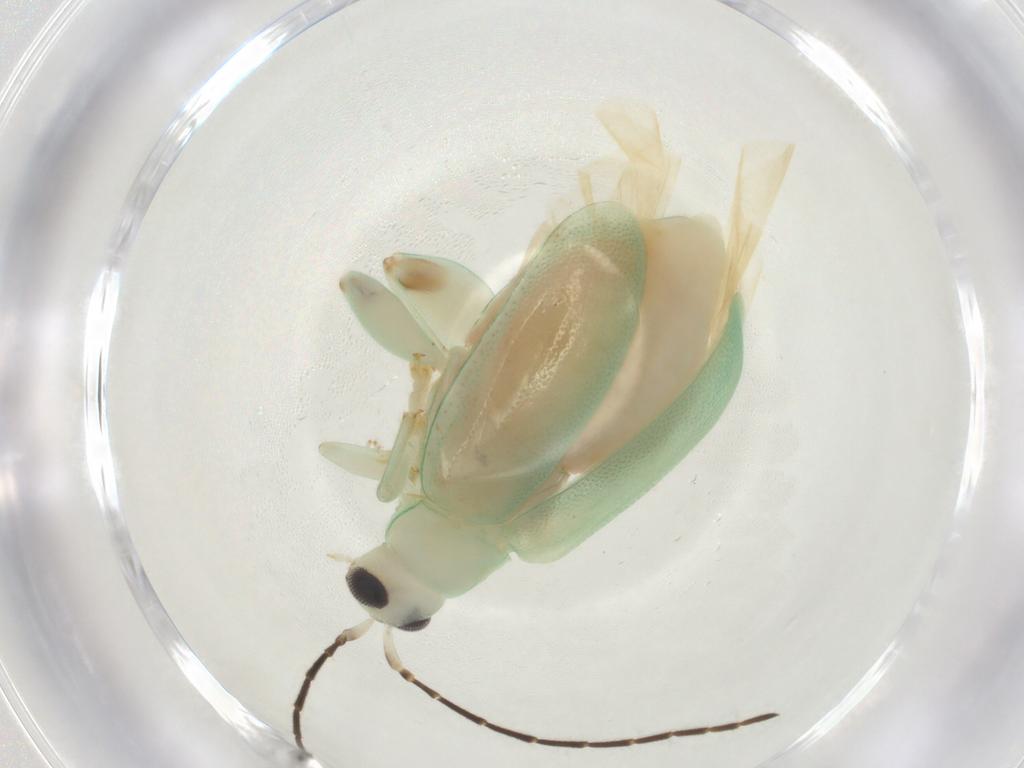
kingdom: Animalia
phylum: Arthropoda
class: Insecta
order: Coleoptera
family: Chrysomelidae
